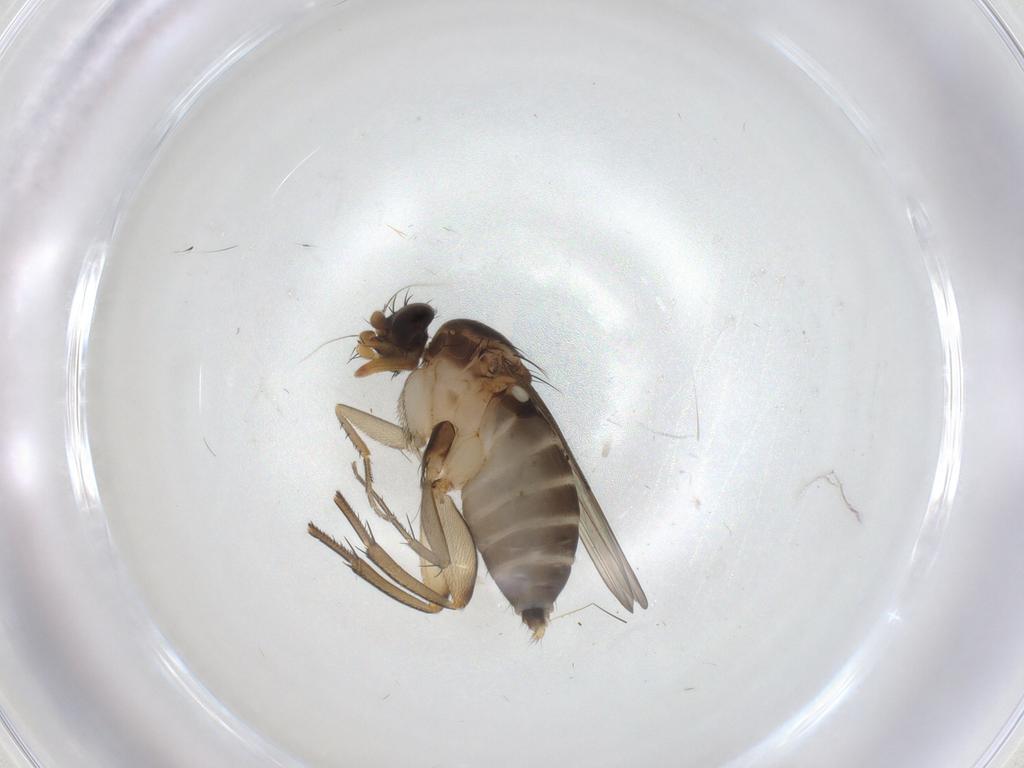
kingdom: Animalia
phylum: Arthropoda
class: Insecta
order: Diptera
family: Phoridae
